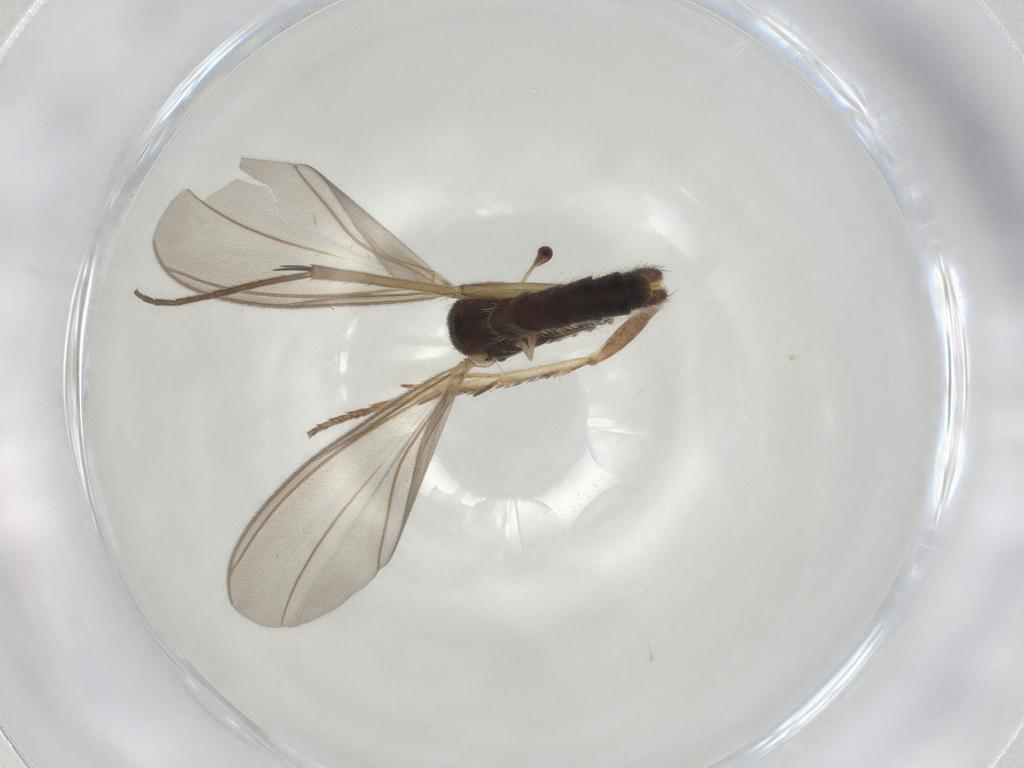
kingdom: Animalia
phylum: Arthropoda
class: Insecta
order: Diptera
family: Mycetophilidae
